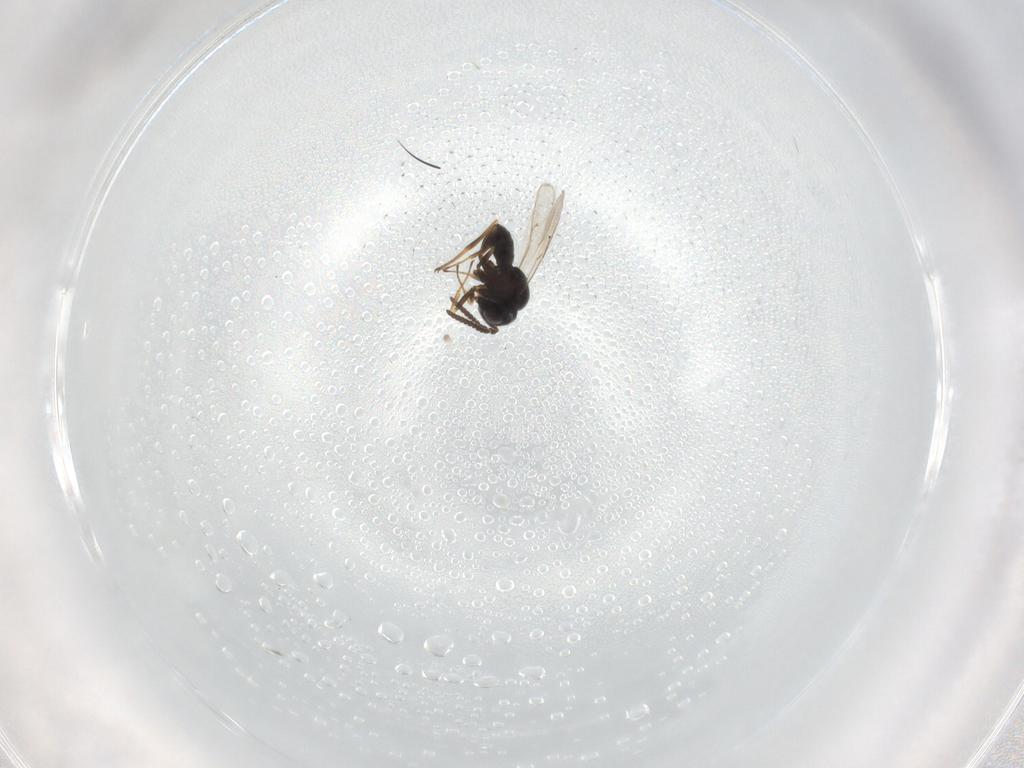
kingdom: Animalia
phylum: Arthropoda
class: Insecta
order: Hymenoptera
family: Braconidae
